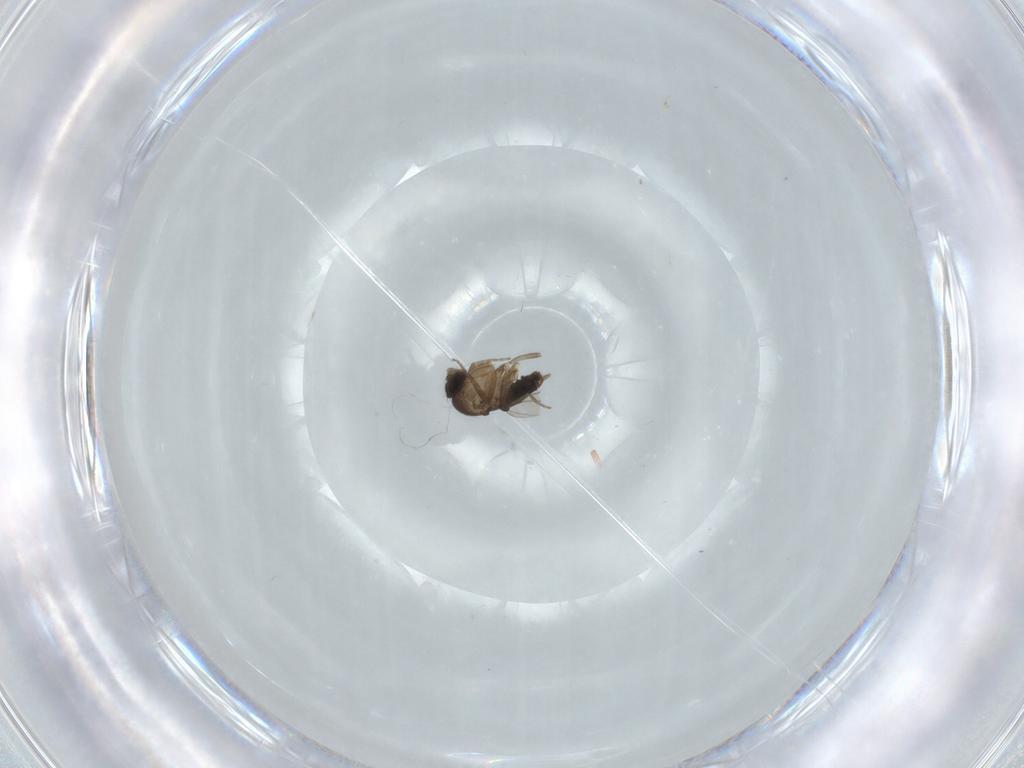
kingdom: Animalia
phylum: Arthropoda
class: Insecta
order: Diptera
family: Phoridae
